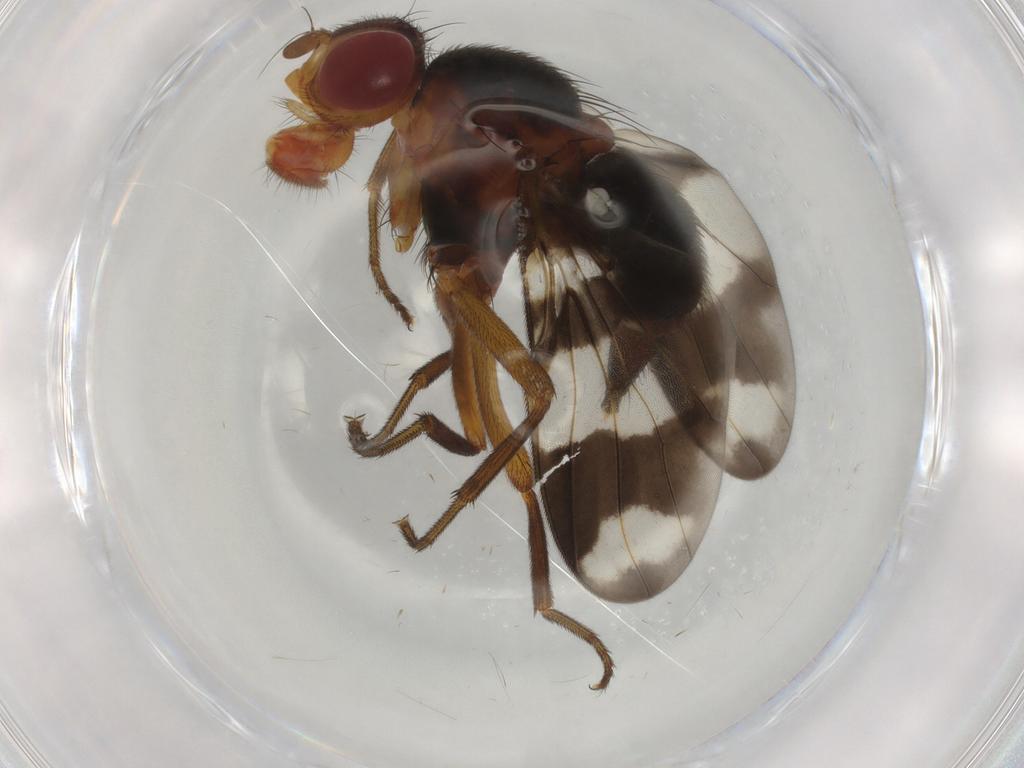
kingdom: Animalia
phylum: Arthropoda
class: Insecta
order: Diptera
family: Richardiidae
